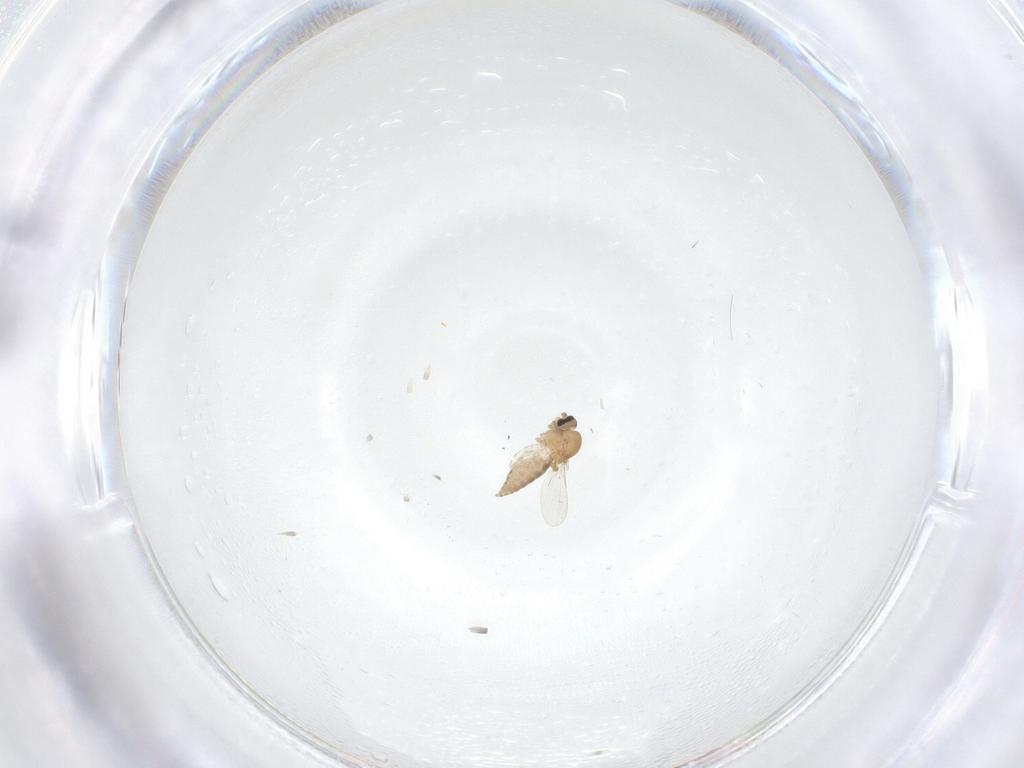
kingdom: Animalia
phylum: Arthropoda
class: Insecta
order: Diptera
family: Ceratopogonidae
